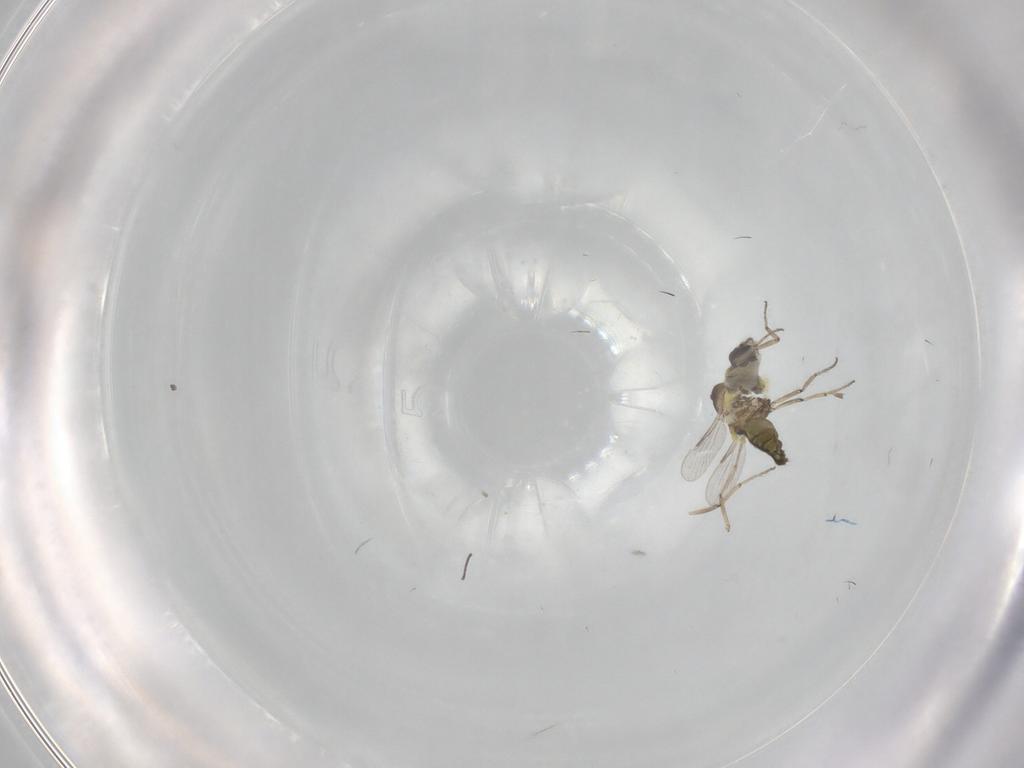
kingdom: Animalia
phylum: Arthropoda
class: Insecta
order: Diptera
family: Ceratopogonidae
